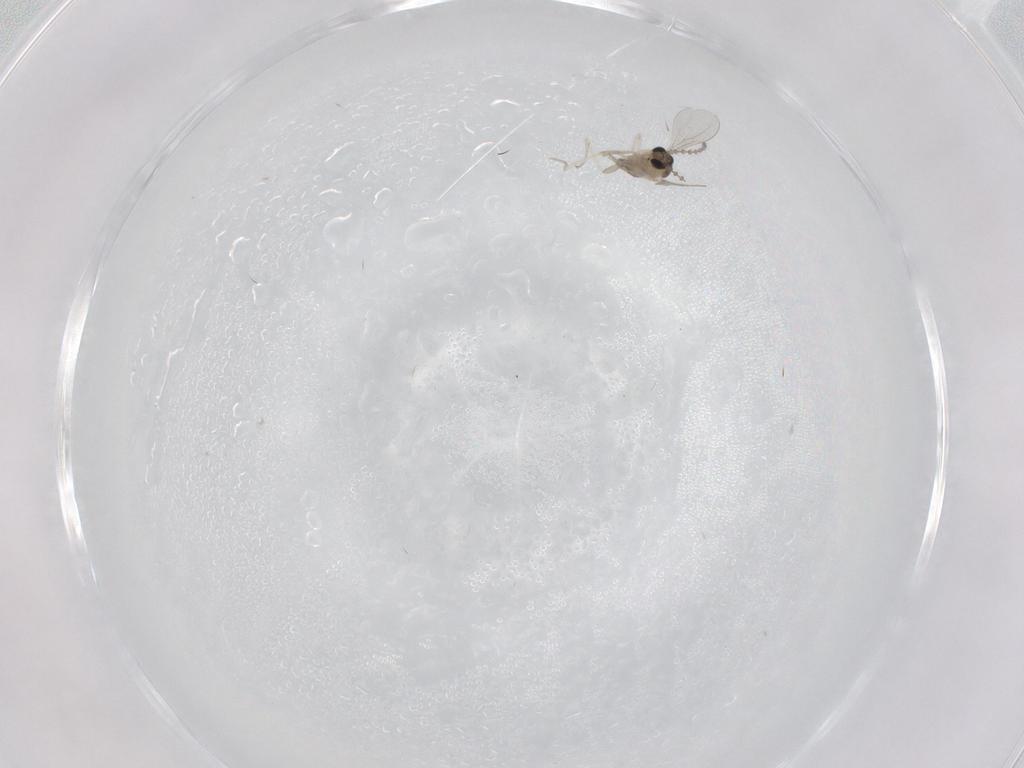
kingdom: Animalia
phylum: Arthropoda
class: Insecta
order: Diptera
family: Cecidomyiidae
